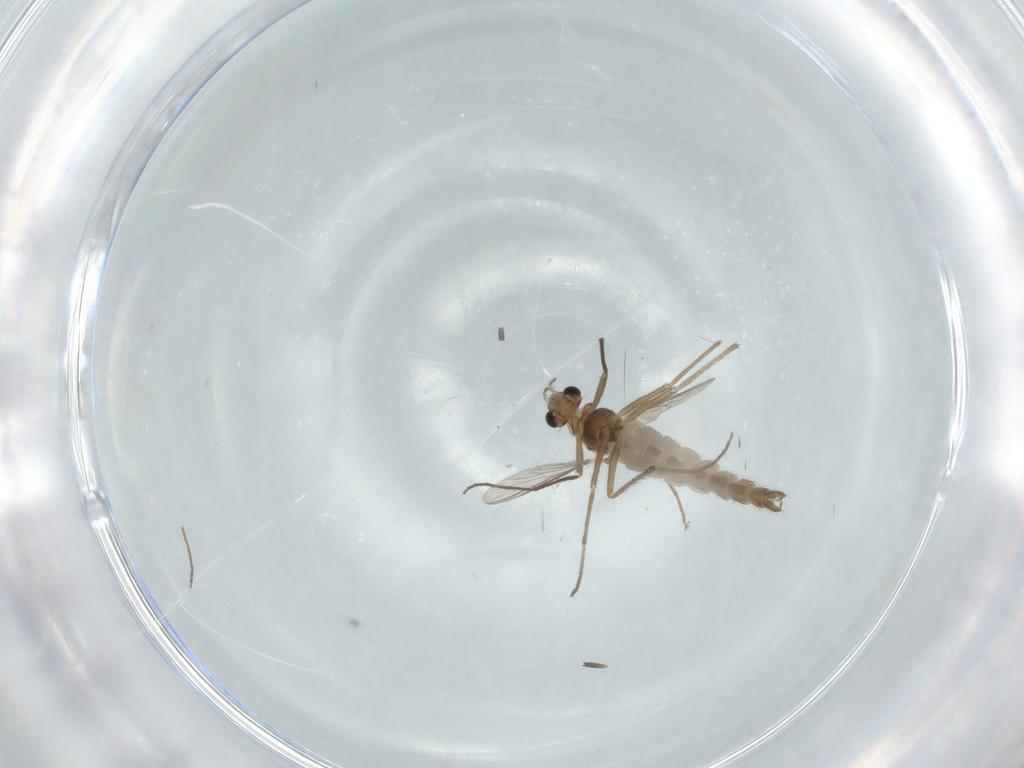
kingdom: Animalia
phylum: Arthropoda
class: Insecta
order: Diptera
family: Chironomidae
